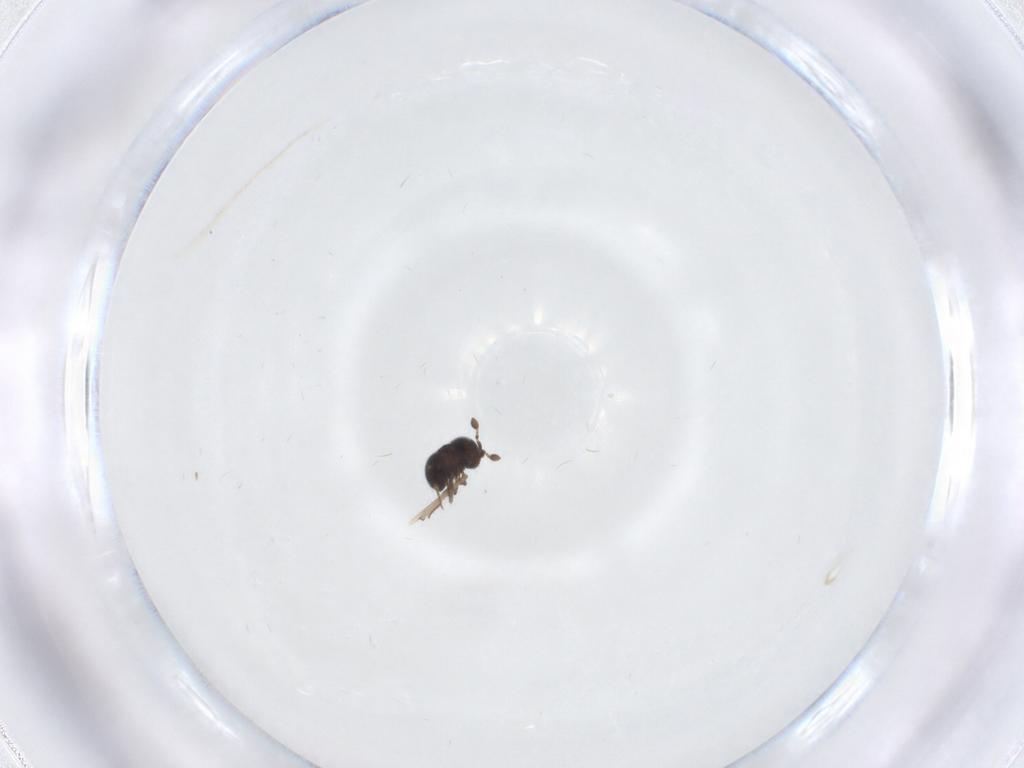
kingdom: Animalia
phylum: Arthropoda
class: Insecta
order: Hymenoptera
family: Scelionidae
